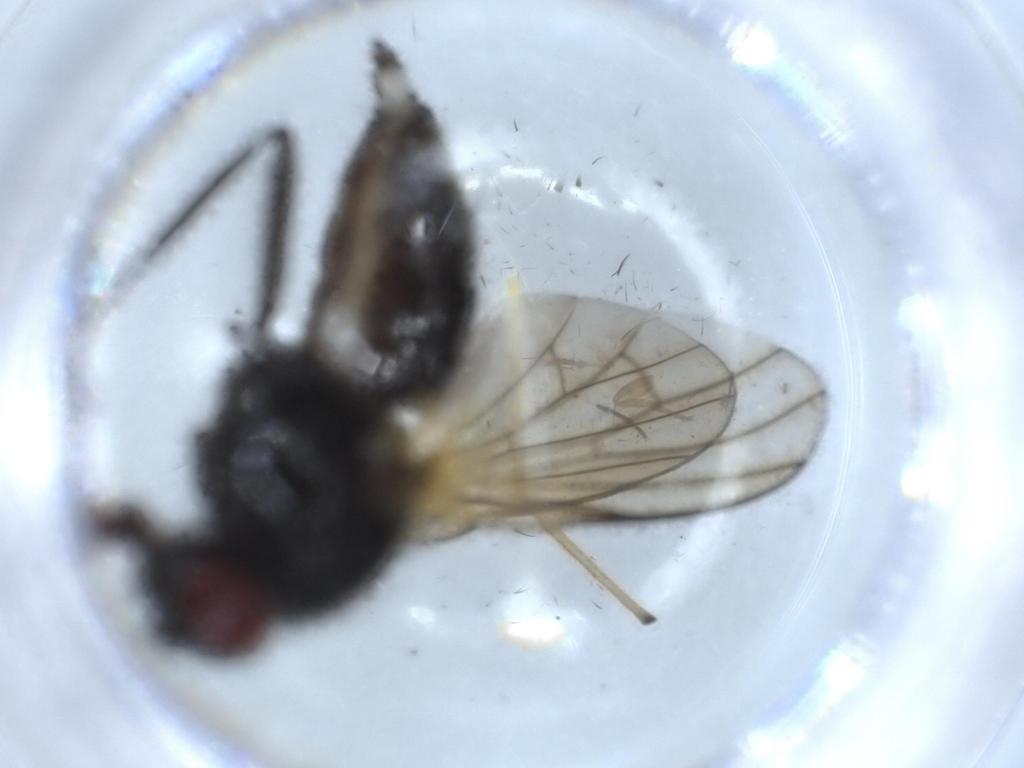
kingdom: Animalia
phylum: Arthropoda
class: Insecta
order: Diptera
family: Muscidae
